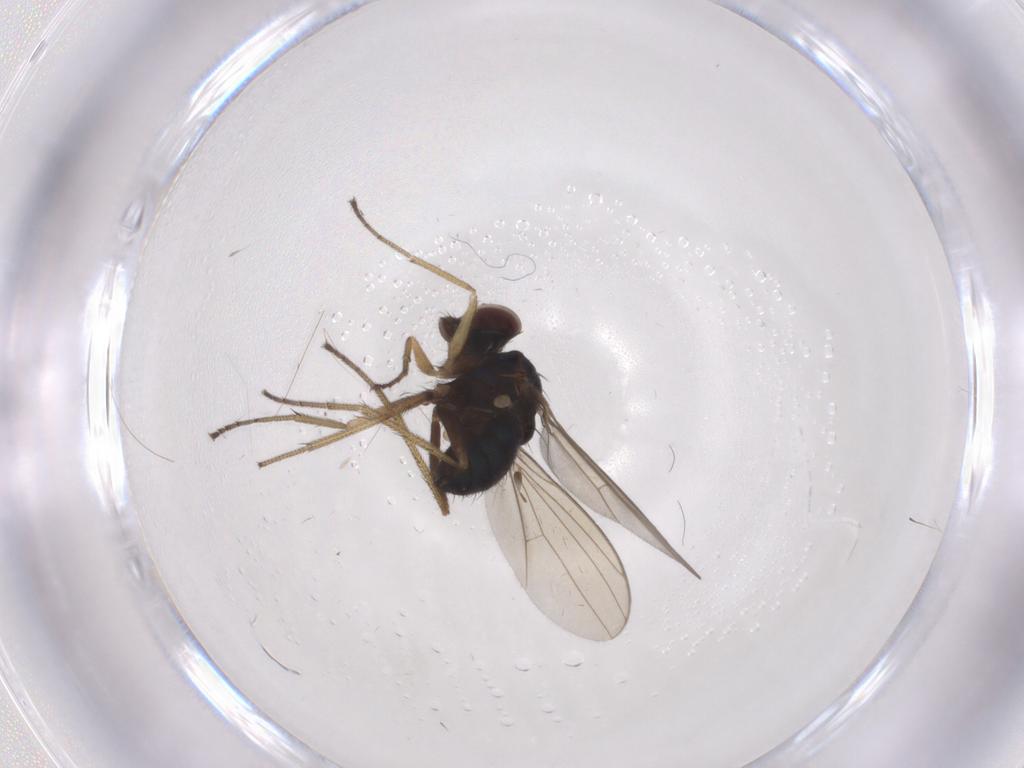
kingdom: Animalia
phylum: Arthropoda
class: Insecta
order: Diptera
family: Dolichopodidae
